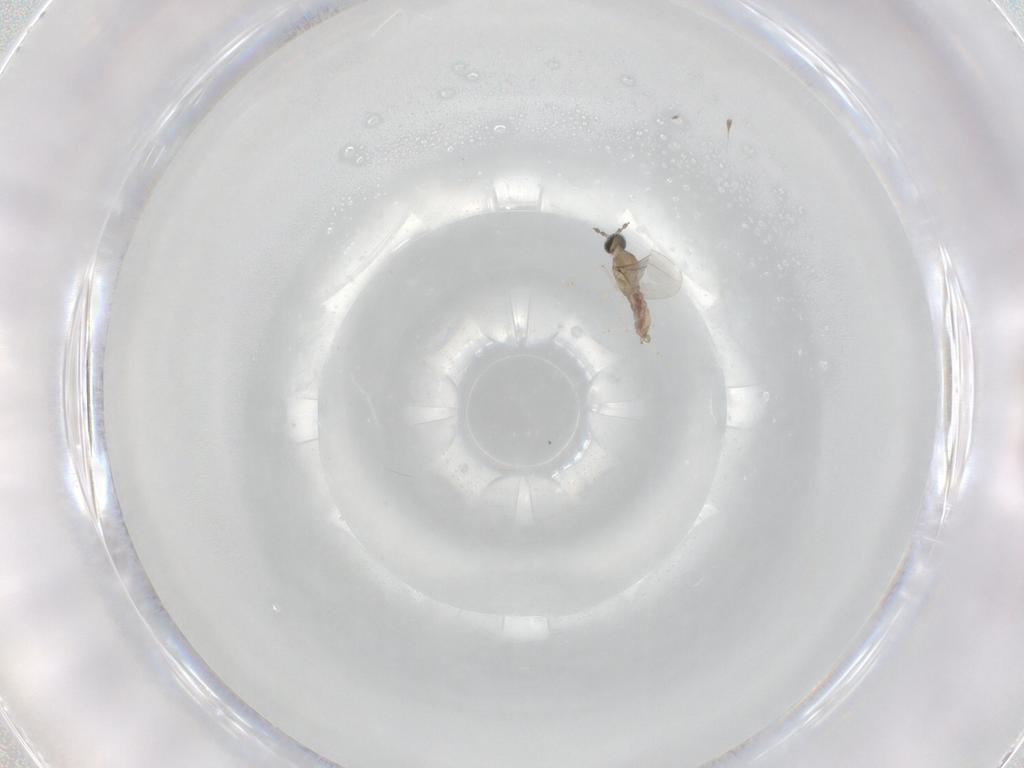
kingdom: Animalia
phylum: Arthropoda
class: Insecta
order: Diptera
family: Cecidomyiidae
